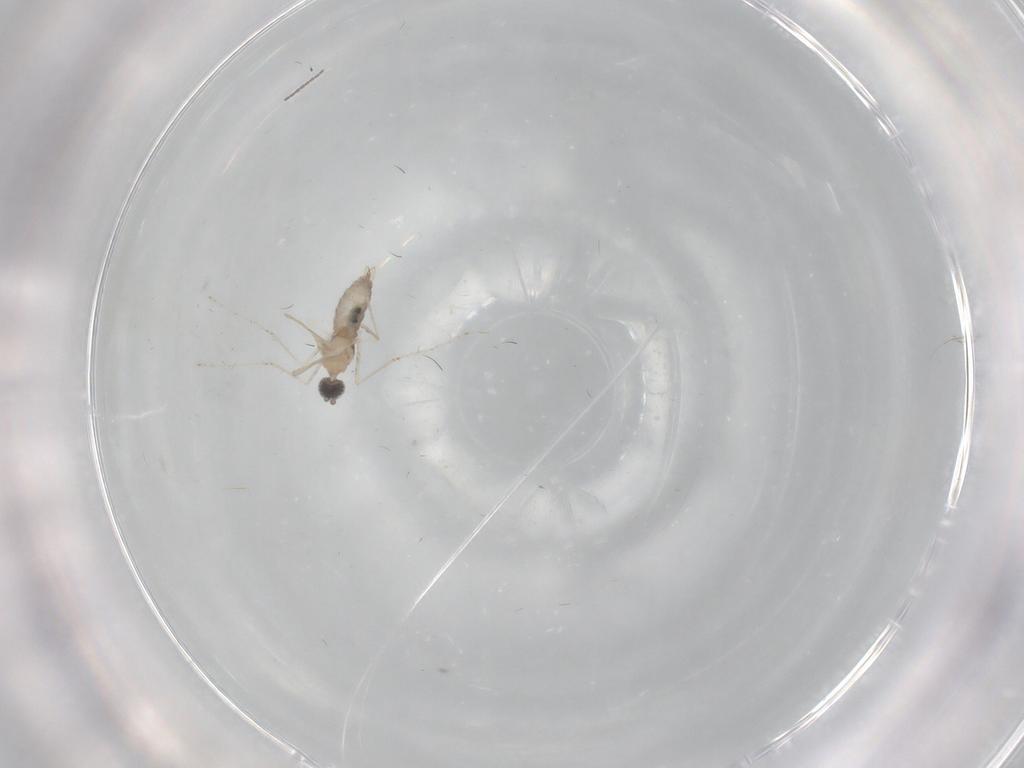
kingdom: Animalia
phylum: Arthropoda
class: Insecta
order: Diptera
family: Cecidomyiidae
